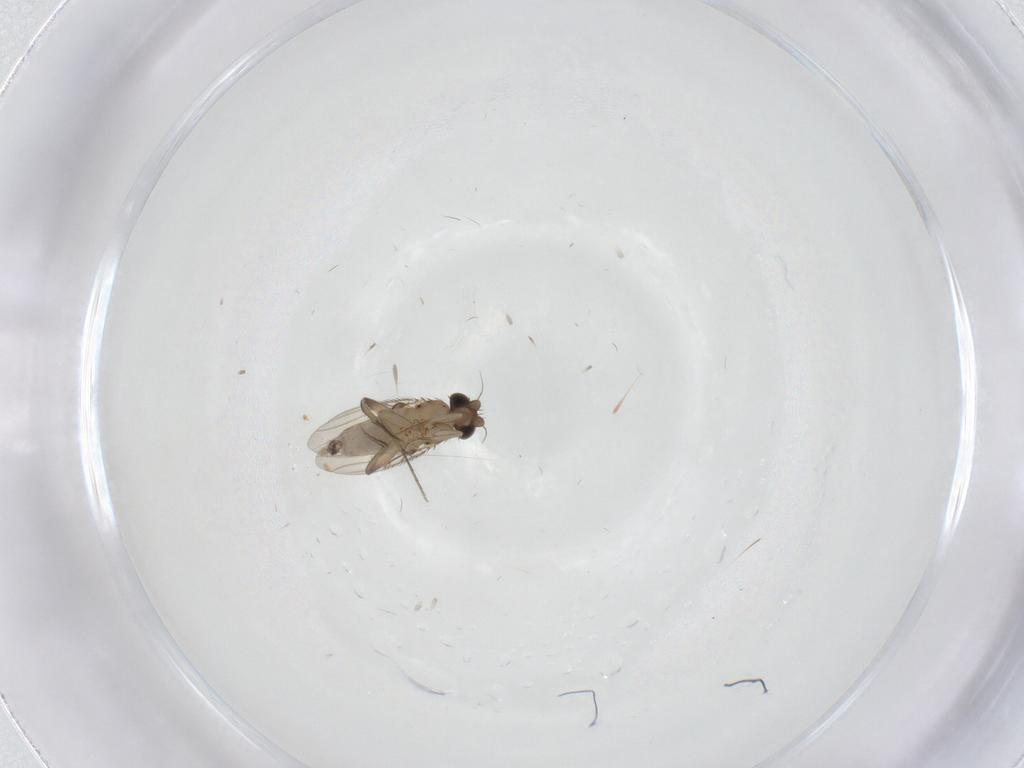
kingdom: Animalia
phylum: Arthropoda
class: Insecta
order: Diptera
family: Phoridae
